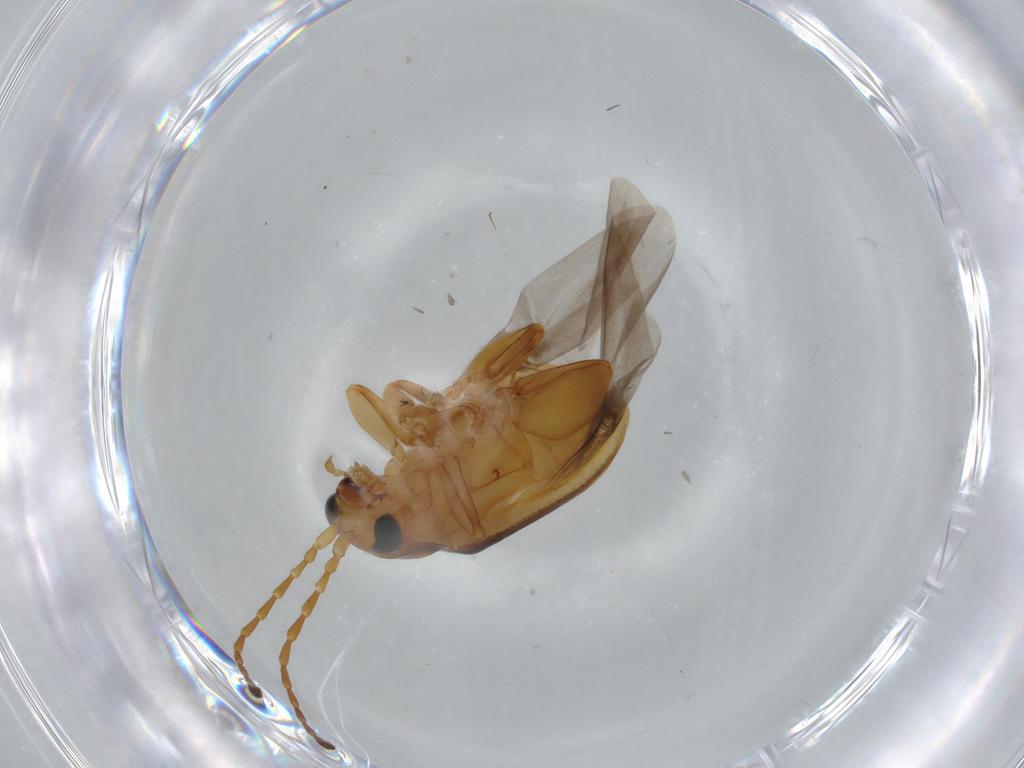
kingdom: Animalia
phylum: Arthropoda
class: Insecta
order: Coleoptera
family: Chrysomelidae
